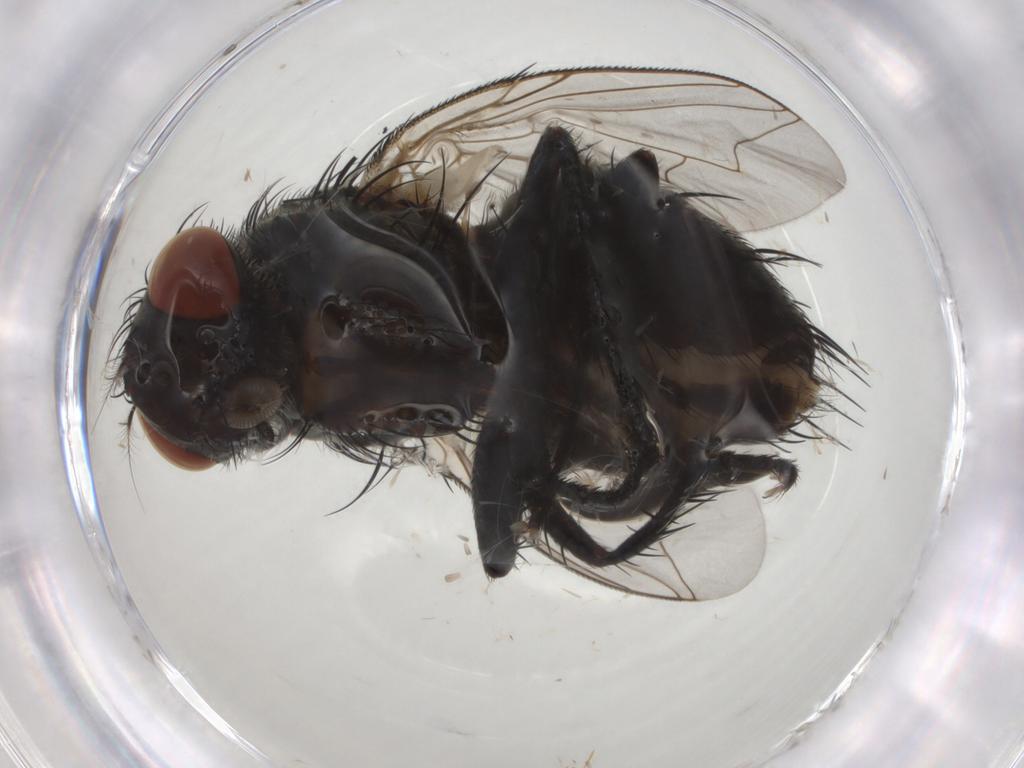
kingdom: Animalia
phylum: Arthropoda
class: Insecta
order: Diptera
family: Sarcophagidae
